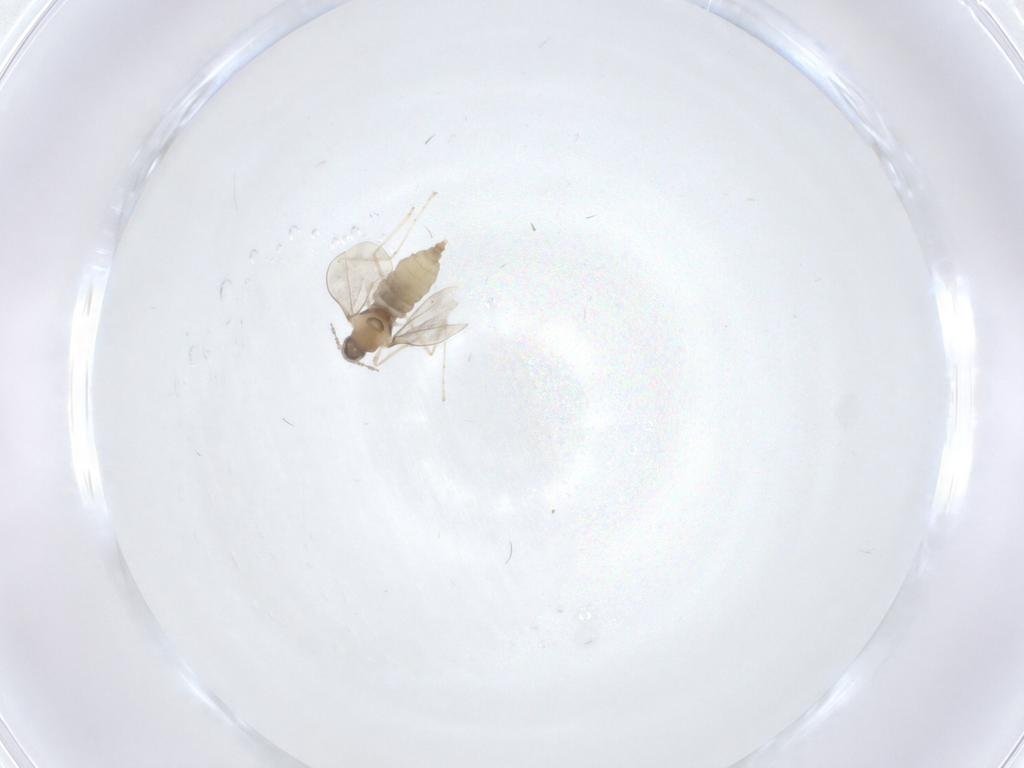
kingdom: Animalia
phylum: Arthropoda
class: Insecta
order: Diptera
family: Cecidomyiidae
